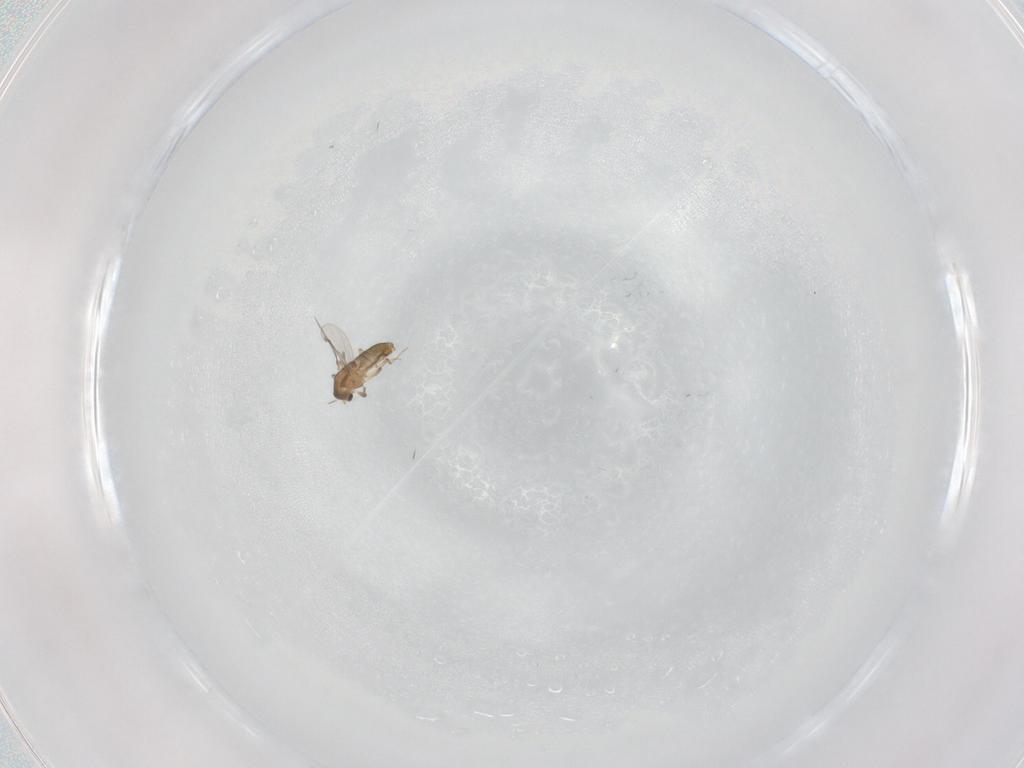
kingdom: Animalia
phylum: Arthropoda
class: Insecta
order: Diptera
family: Chironomidae
